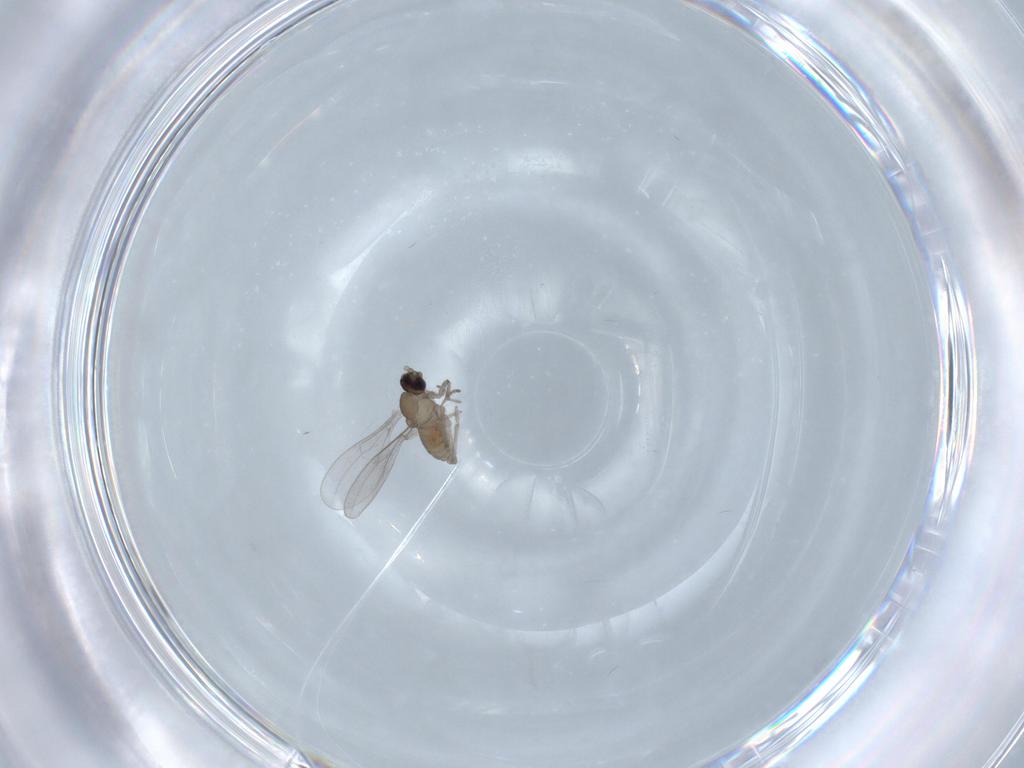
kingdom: Animalia
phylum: Arthropoda
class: Insecta
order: Diptera
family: Cecidomyiidae
